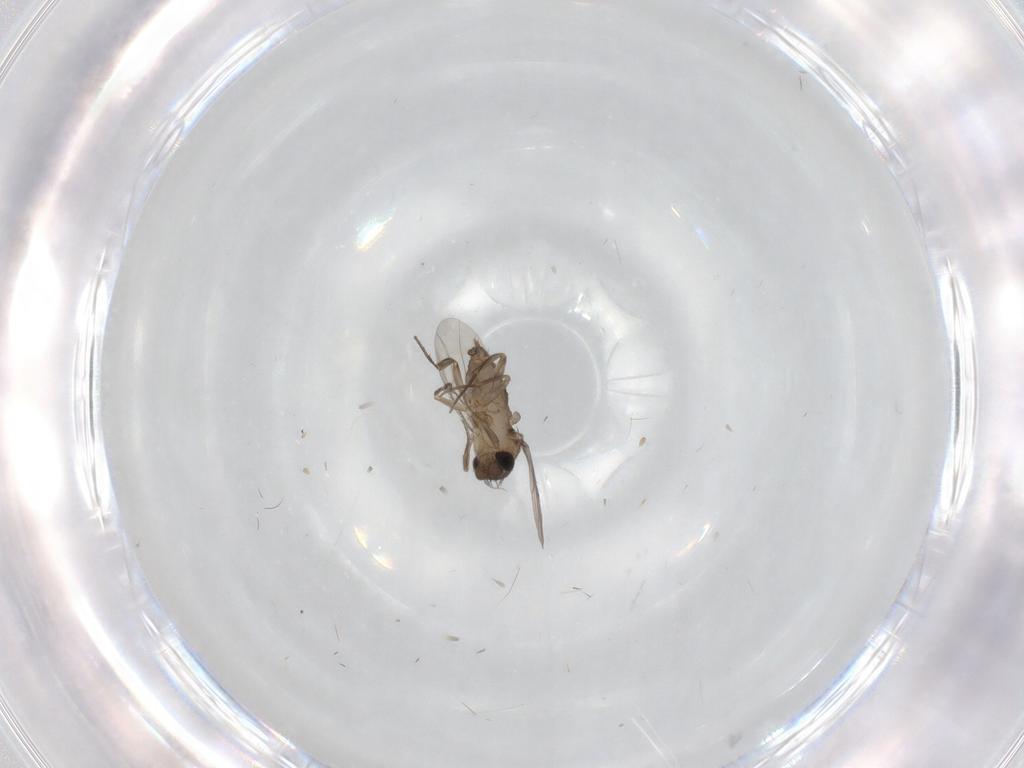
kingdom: Animalia
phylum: Arthropoda
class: Insecta
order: Diptera
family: Phoridae
